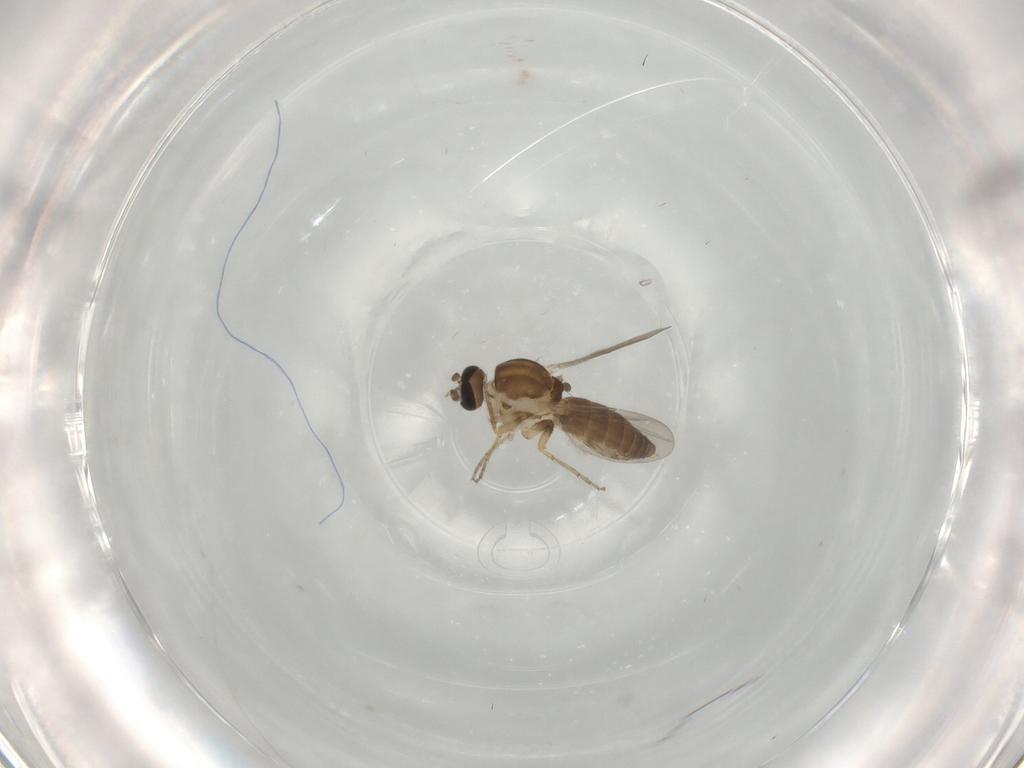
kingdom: Animalia
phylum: Arthropoda
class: Insecta
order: Diptera
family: Ceratopogonidae
